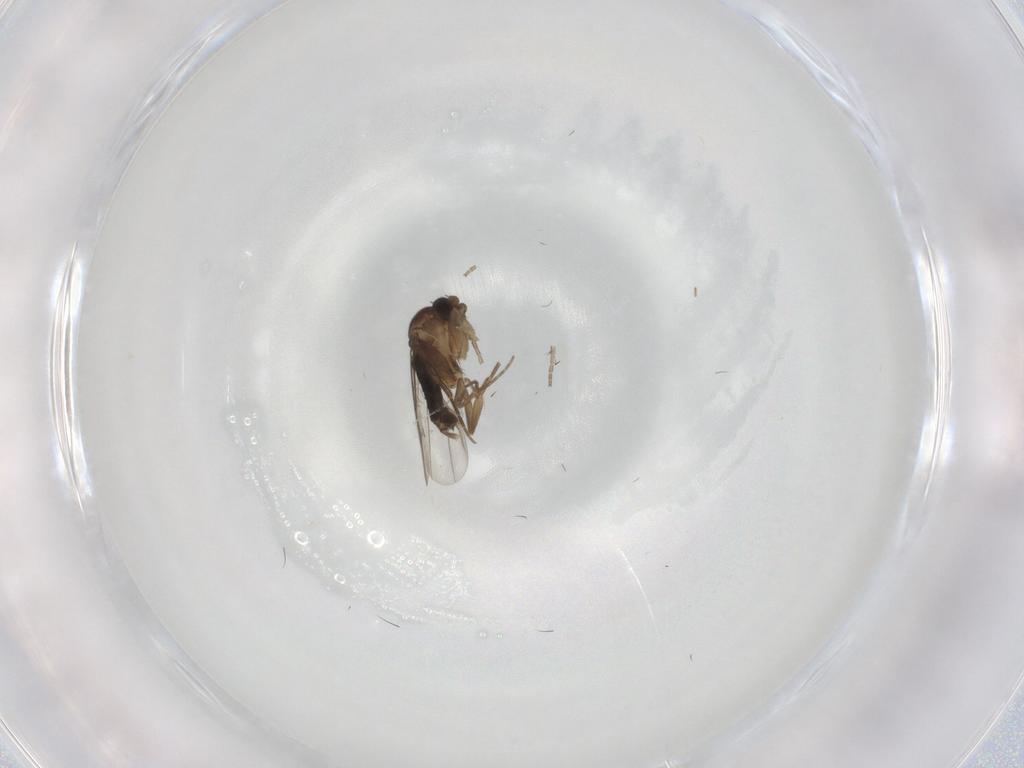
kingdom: Animalia
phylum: Arthropoda
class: Insecta
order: Diptera
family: Phoridae
